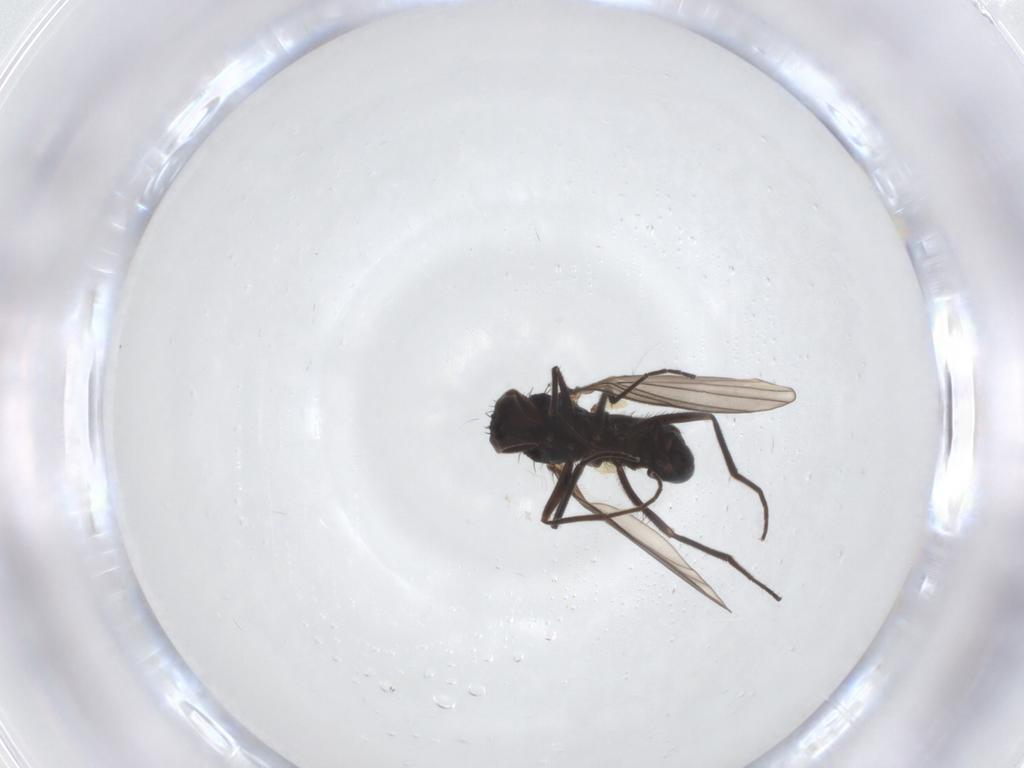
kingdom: Animalia
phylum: Arthropoda
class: Insecta
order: Diptera
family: Dolichopodidae
